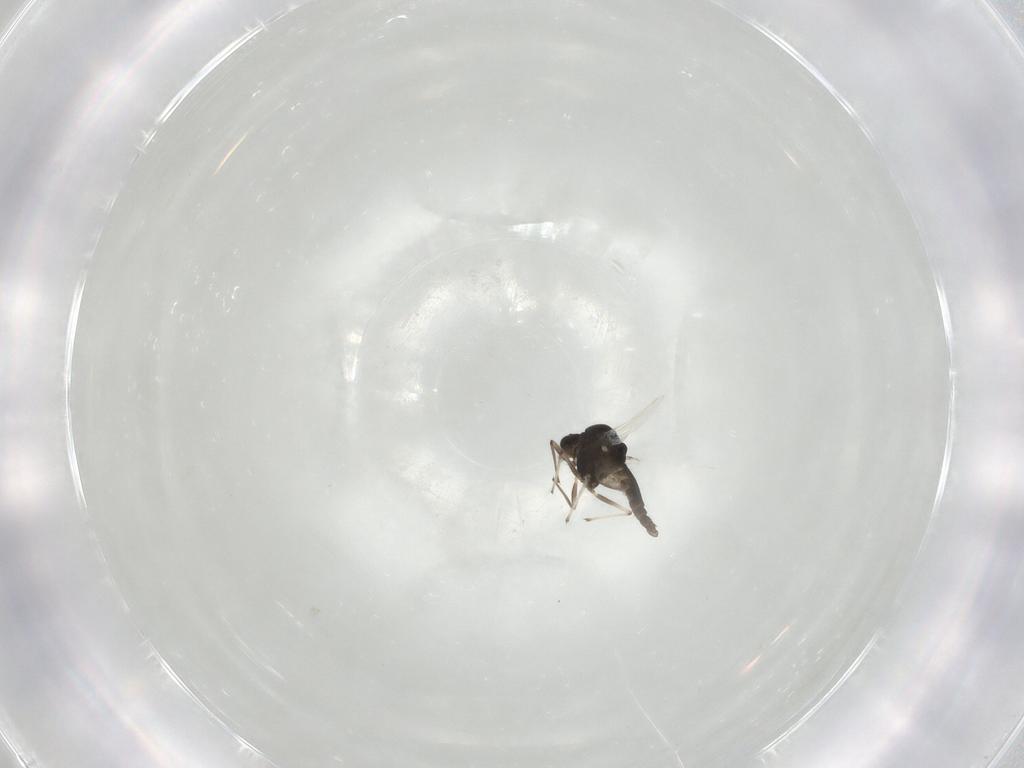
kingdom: Animalia
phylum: Arthropoda
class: Insecta
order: Diptera
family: Chironomidae
